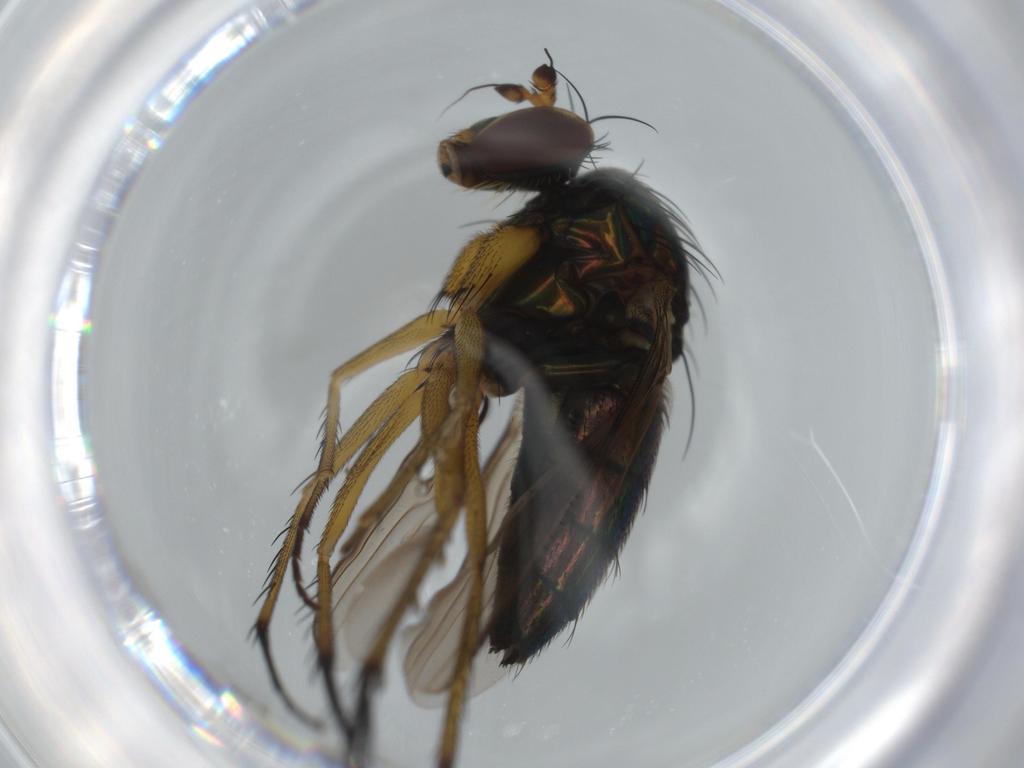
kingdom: Animalia
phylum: Arthropoda
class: Insecta
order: Diptera
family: Dolichopodidae
